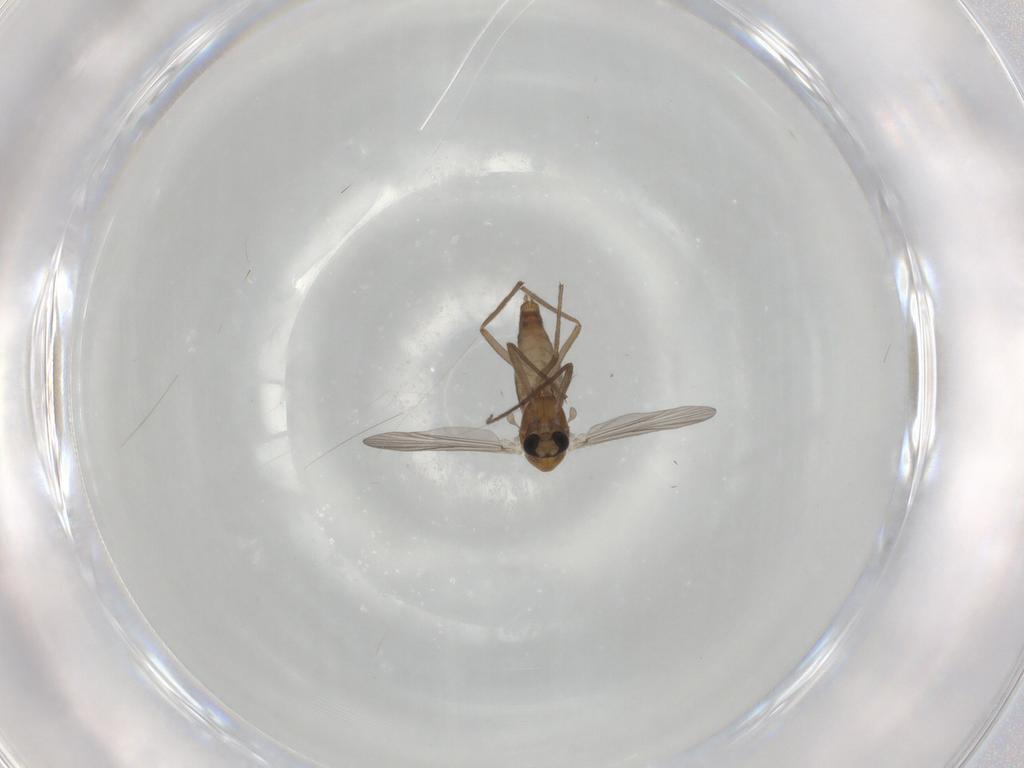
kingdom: Animalia
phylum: Arthropoda
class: Insecta
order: Diptera
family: Chironomidae
